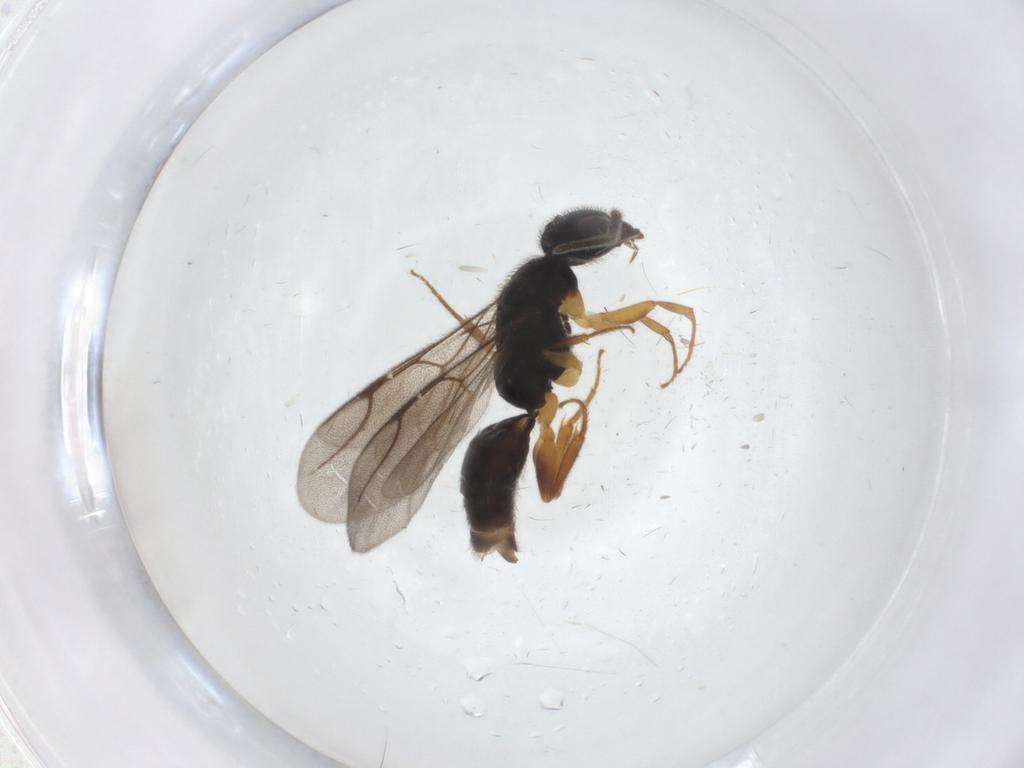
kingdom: Animalia
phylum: Arthropoda
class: Insecta
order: Hymenoptera
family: Bethylidae
